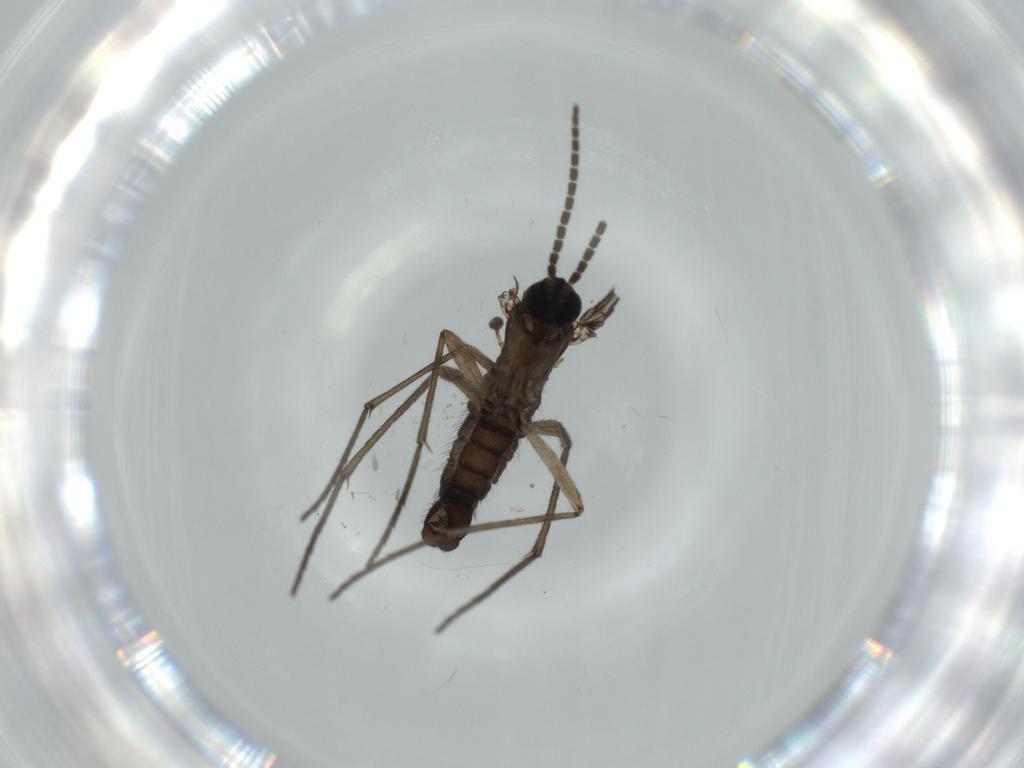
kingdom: Animalia
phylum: Arthropoda
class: Insecta
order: Diptera
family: Sciaridae
